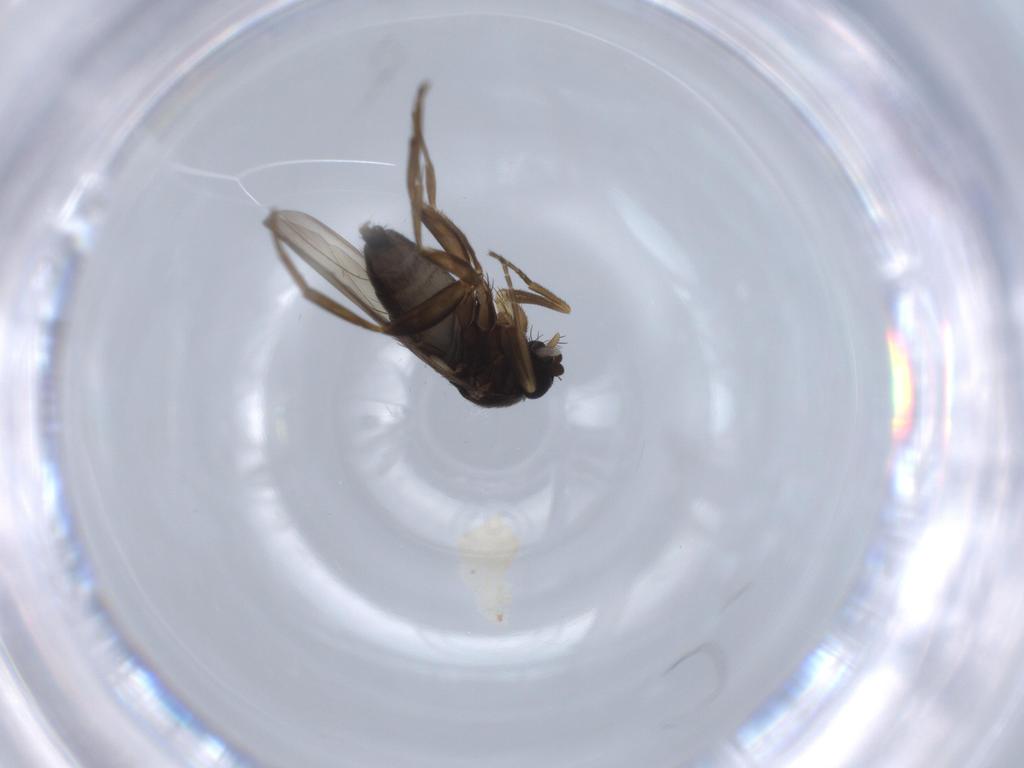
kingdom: Animalia
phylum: Arthropoda
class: Insecta
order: Diptera
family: Phoridae
